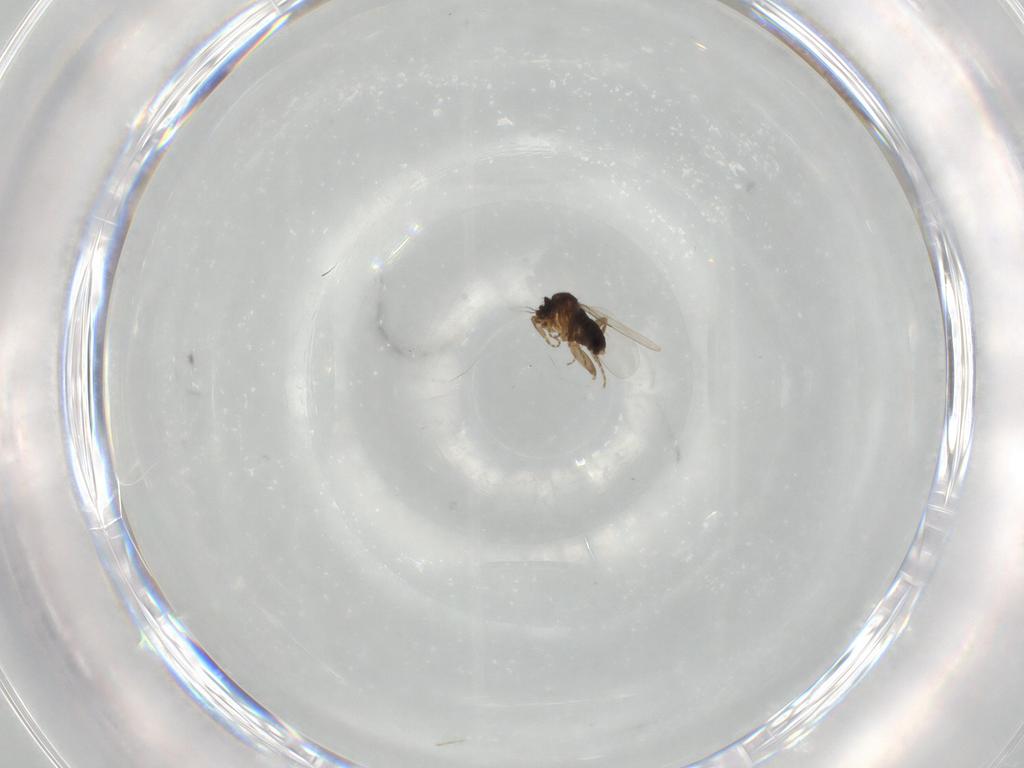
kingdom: Animalia
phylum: Arthropoda
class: Insecta
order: Diptera
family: Phoridae
